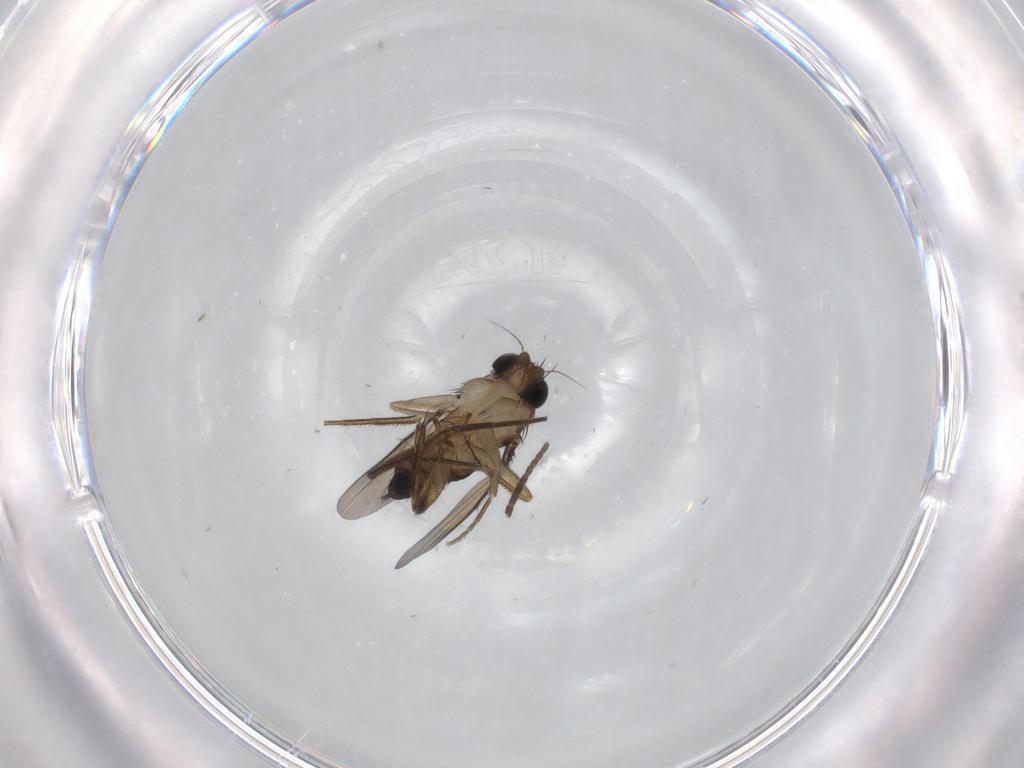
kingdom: Animalia
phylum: Arthropoda
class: Insecta
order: Diptera
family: Sciaridae
